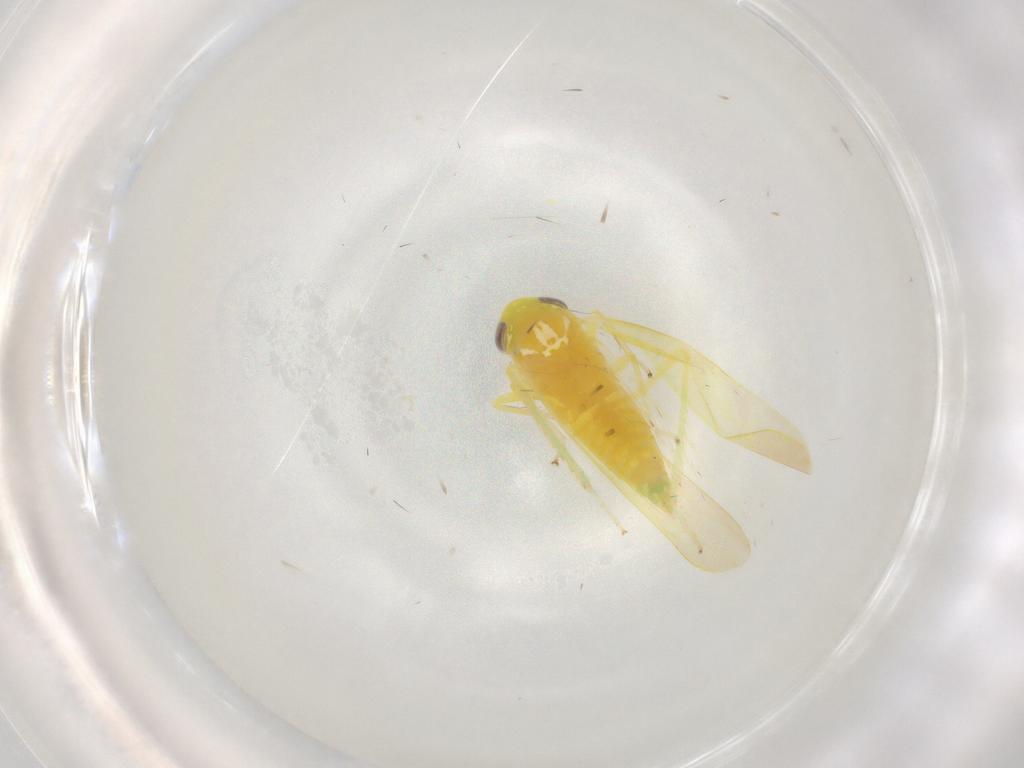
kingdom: Animalia
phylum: Arthropoda
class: Insecta
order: Hemiptera
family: Cicadellidae
